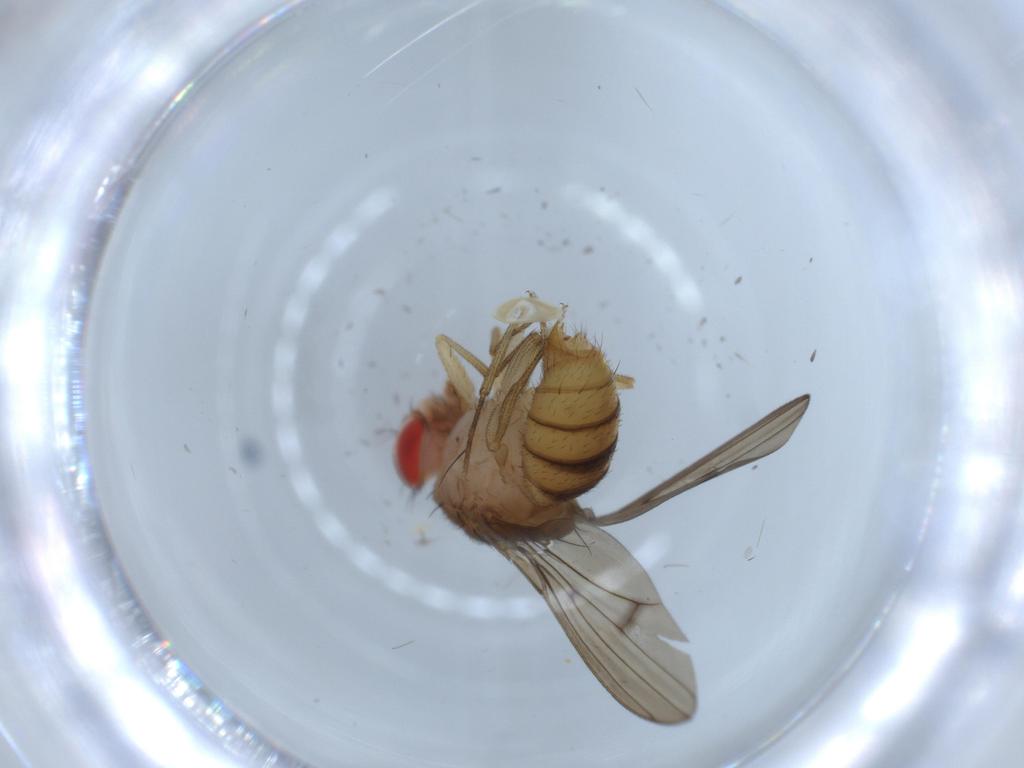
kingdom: Animalia
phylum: Arthropoda
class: Insecta
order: Diptera
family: Drosophilidae
